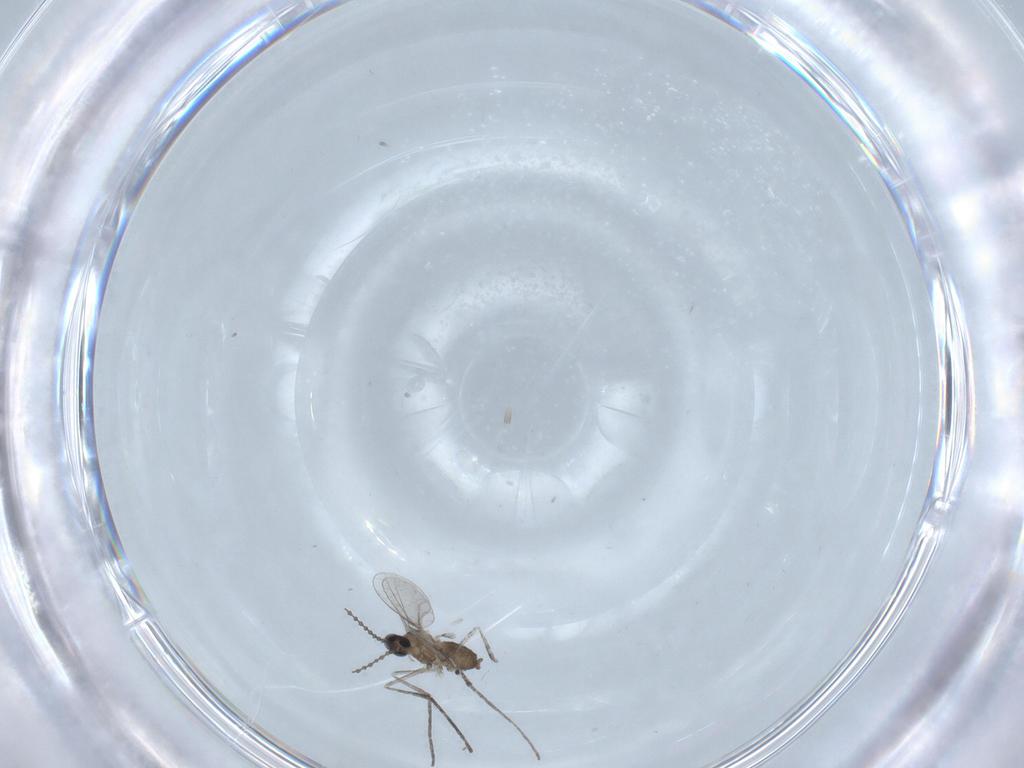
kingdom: Animalia
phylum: Arthropoda
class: Insecta
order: Diptera
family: Cecidomyiidae
